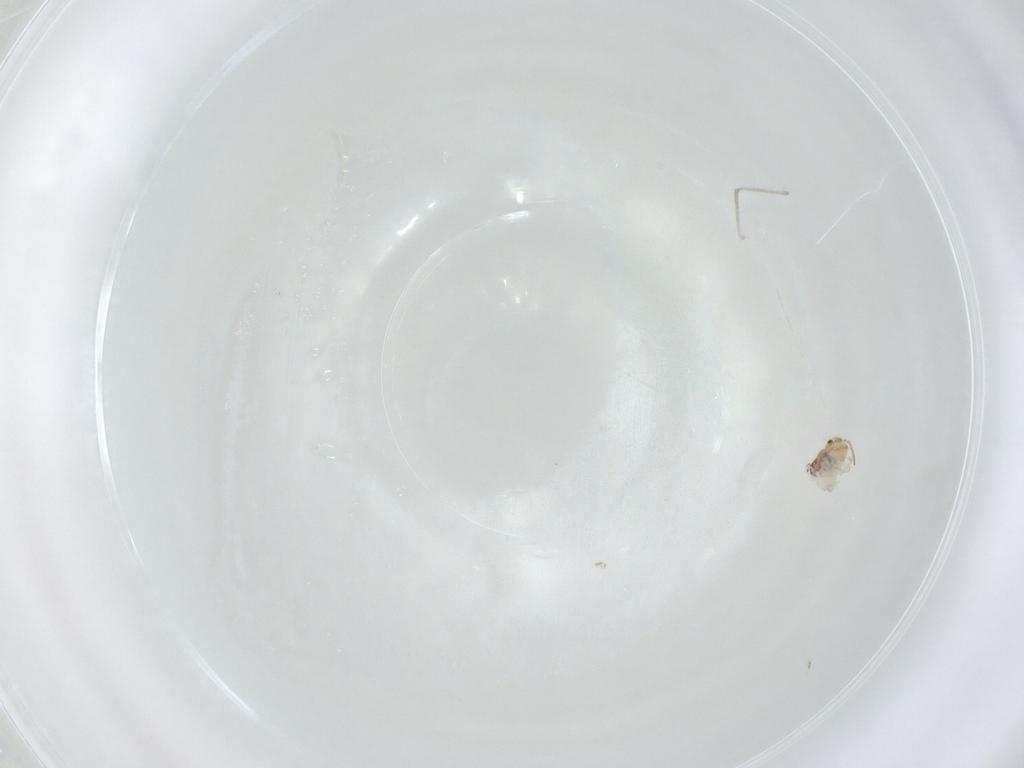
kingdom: Animalia
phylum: Arthropoda
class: Collembola
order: Symphypleona
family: Bourletiellidae
